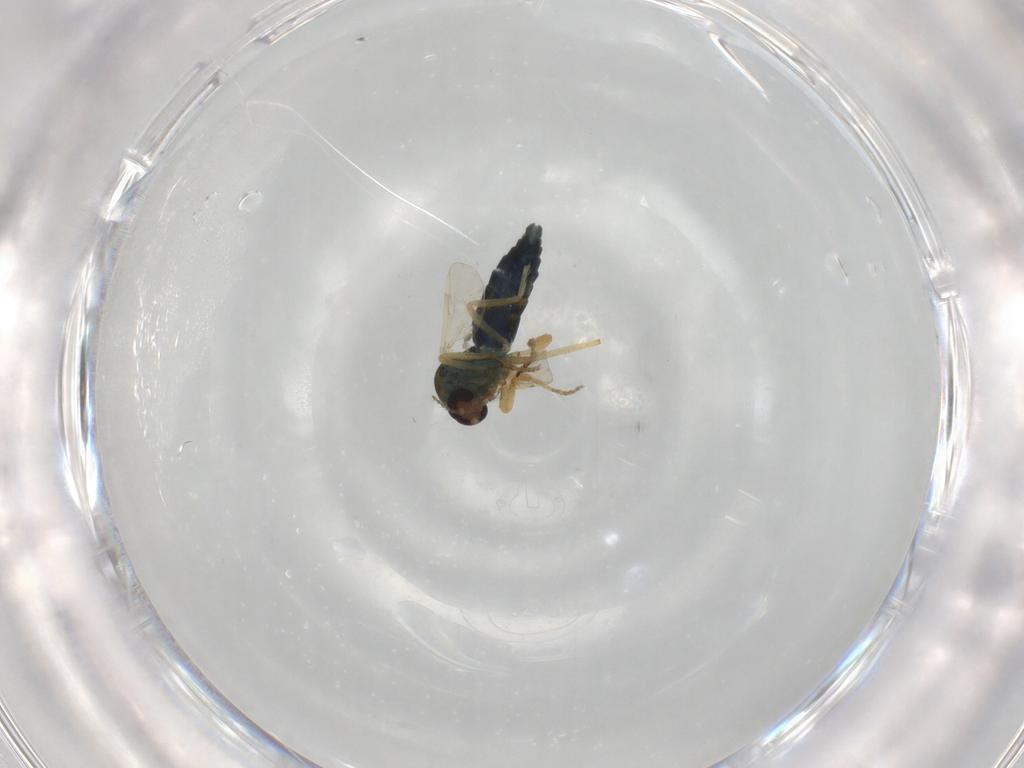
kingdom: Animalia
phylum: Arthropoda
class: Insecta
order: Diptera
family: Ceratopogonidae
